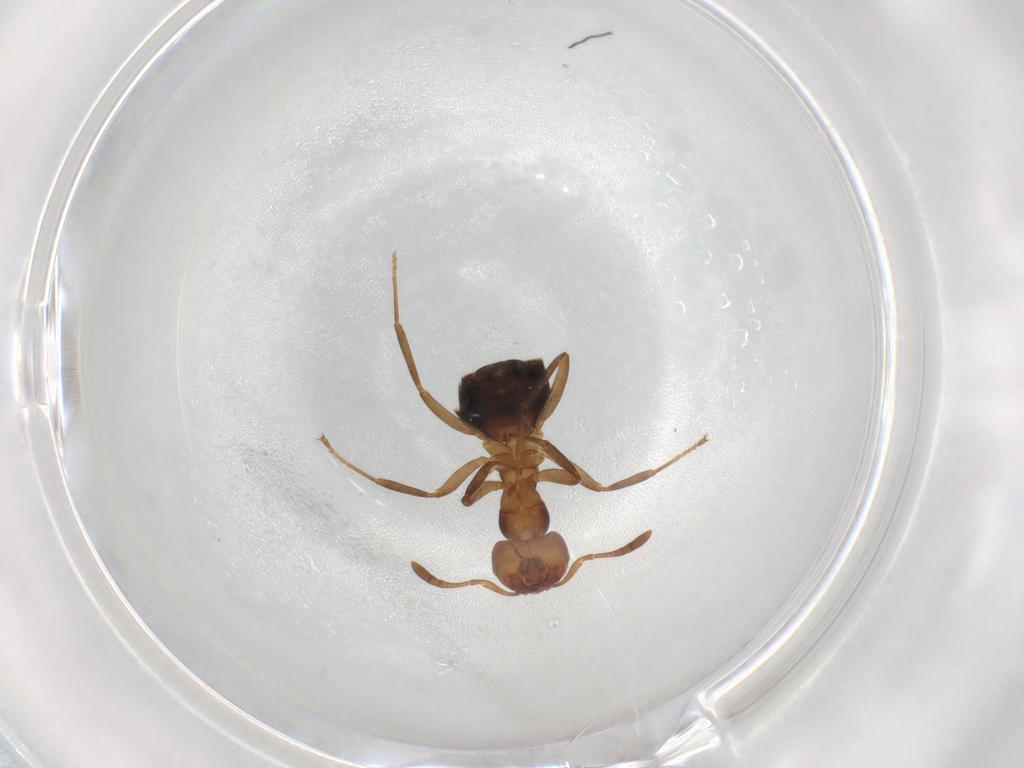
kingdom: Animalia
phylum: Arthropoda
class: Insecta
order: Hymenoptera
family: Formicidae
